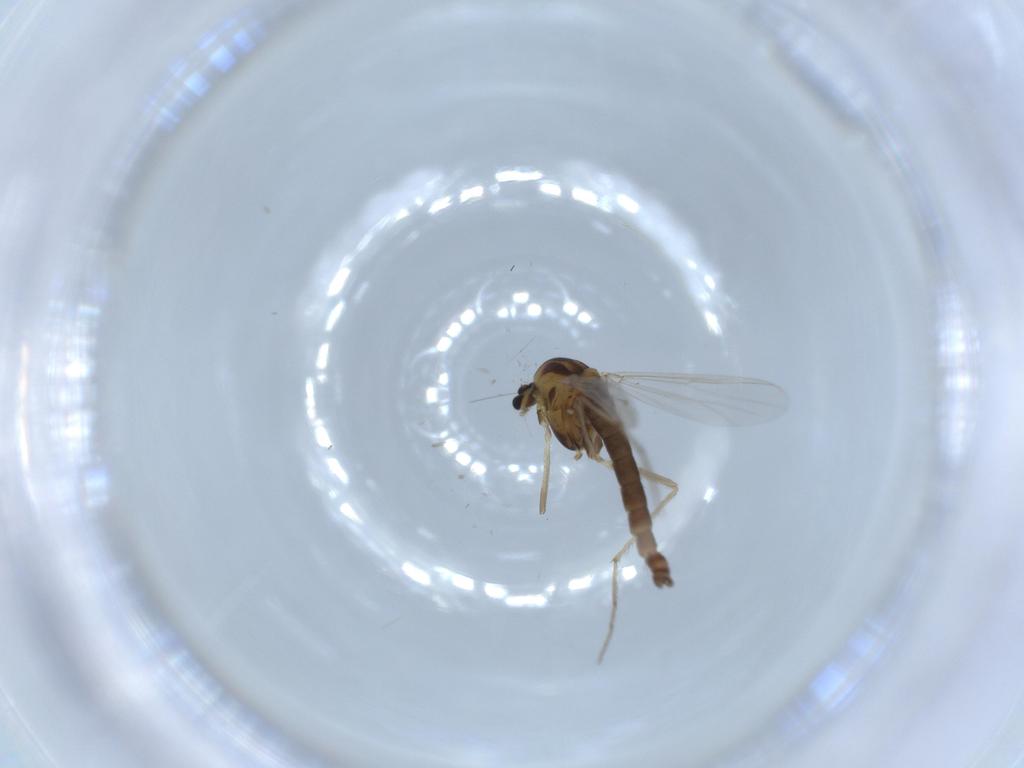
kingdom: Animalia
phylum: Arthropoda
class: Insecta
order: Diptera
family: Chironomidae
